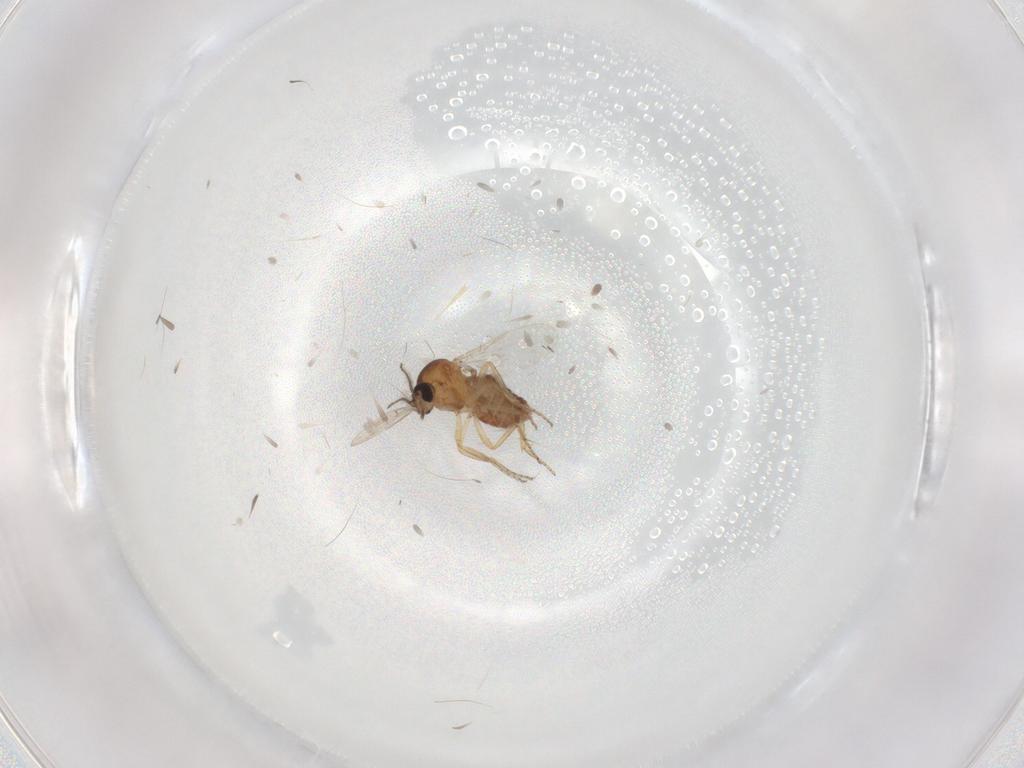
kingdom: Animalia
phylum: Arthropoda
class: Insecta
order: Diptera
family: Ceratopogonidae
